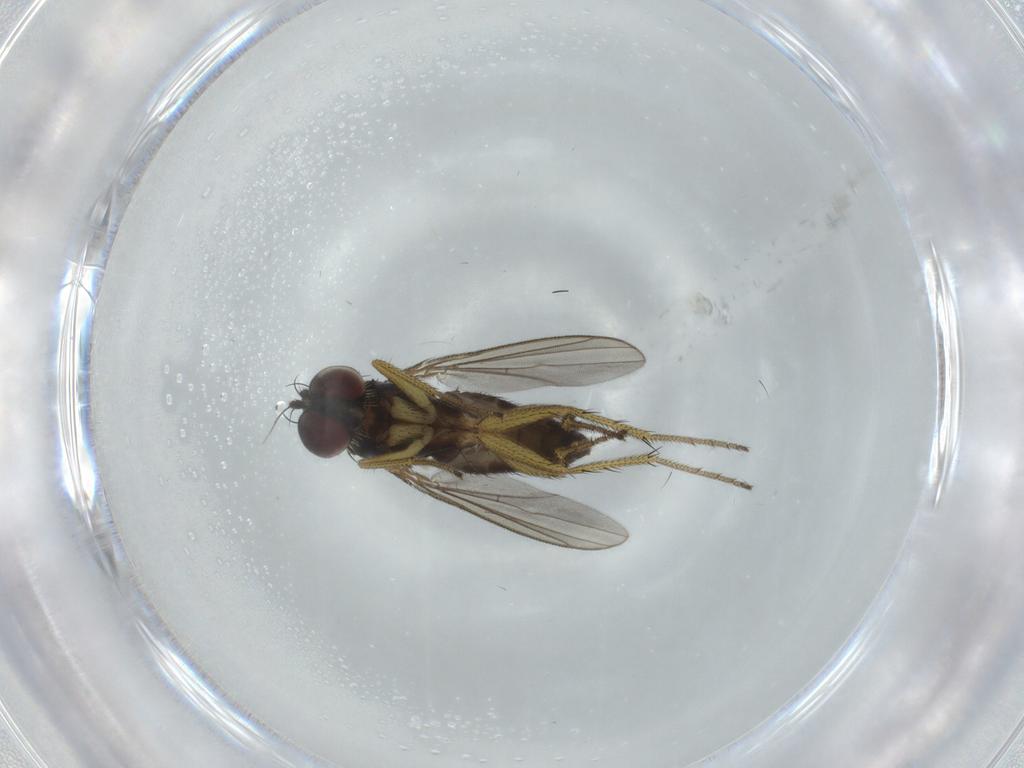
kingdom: Animalia
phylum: Arthropoda
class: Insecta
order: Diptera
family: Dolichopodidae
